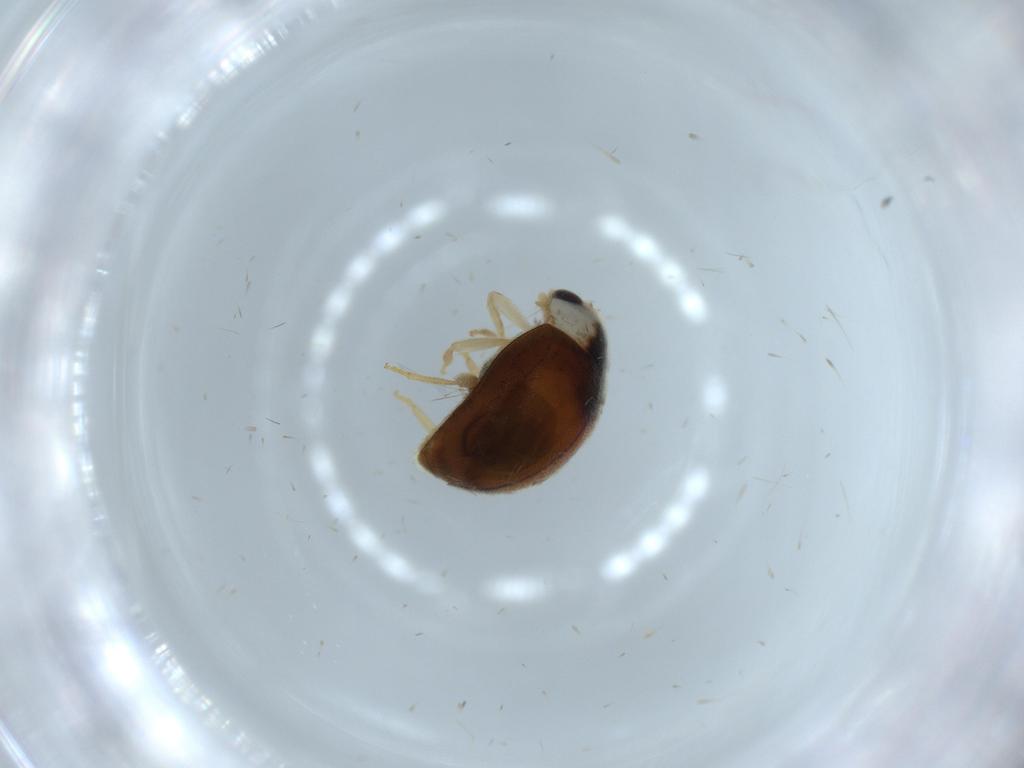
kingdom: Animalia
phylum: Arthropoda
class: Insecta
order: Coleoptera
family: Coccinellidae
